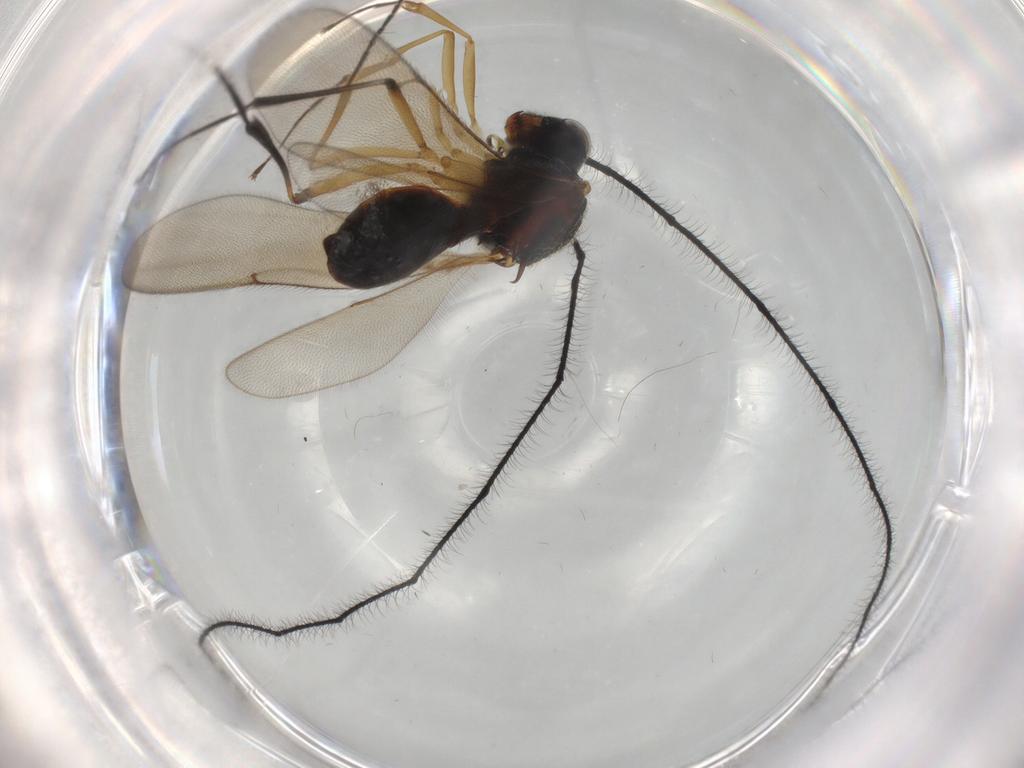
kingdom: Animalia
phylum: Arthropoda
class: Insecta
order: Hymenoptera
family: Scelionidae
